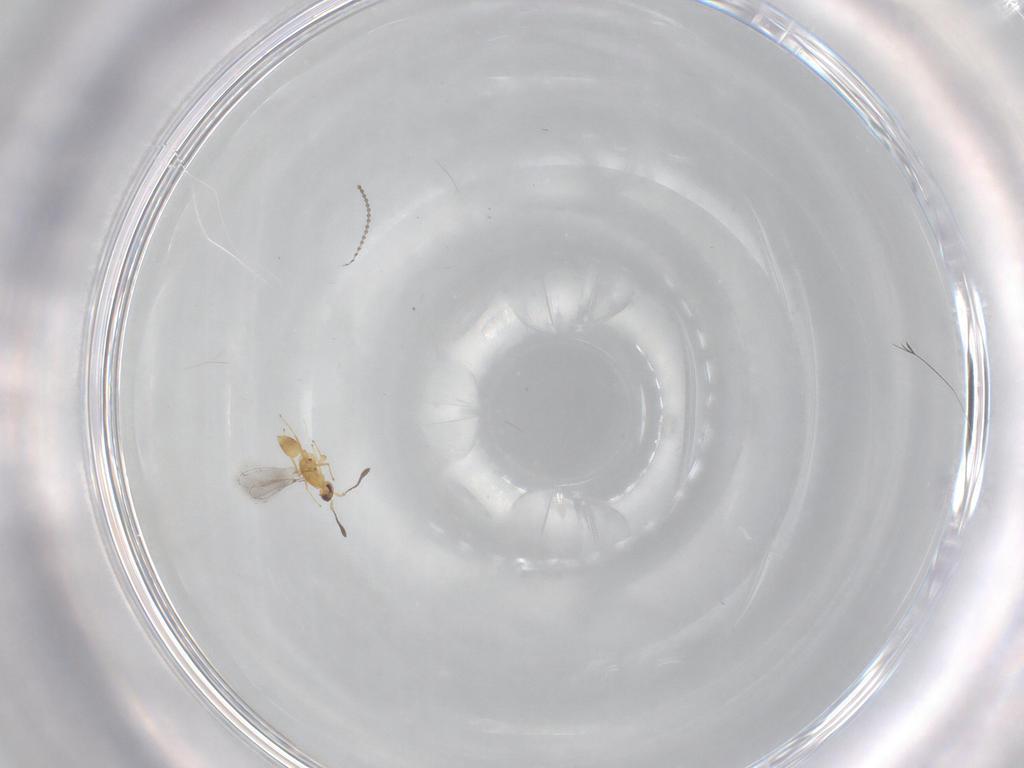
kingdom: Animalia
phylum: Arthropoda
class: Insecta
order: Hymenoptera
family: Mymaridae
